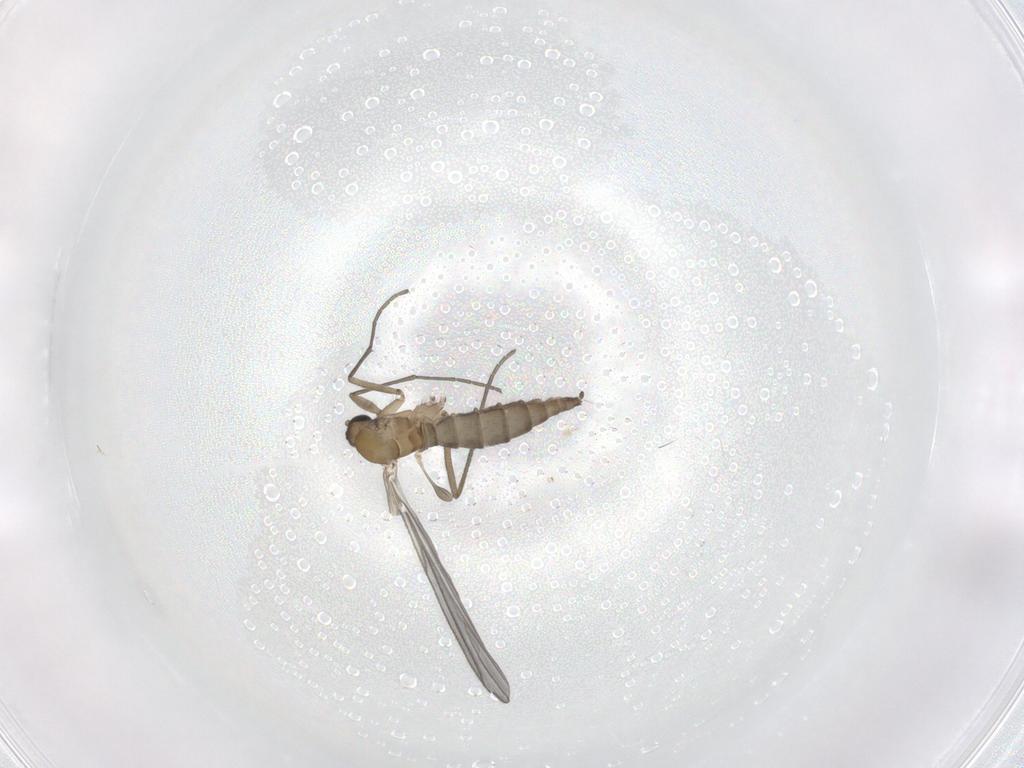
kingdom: Animalia
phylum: Arthropoda
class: Insecta
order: Diptera
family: Sciaridae
